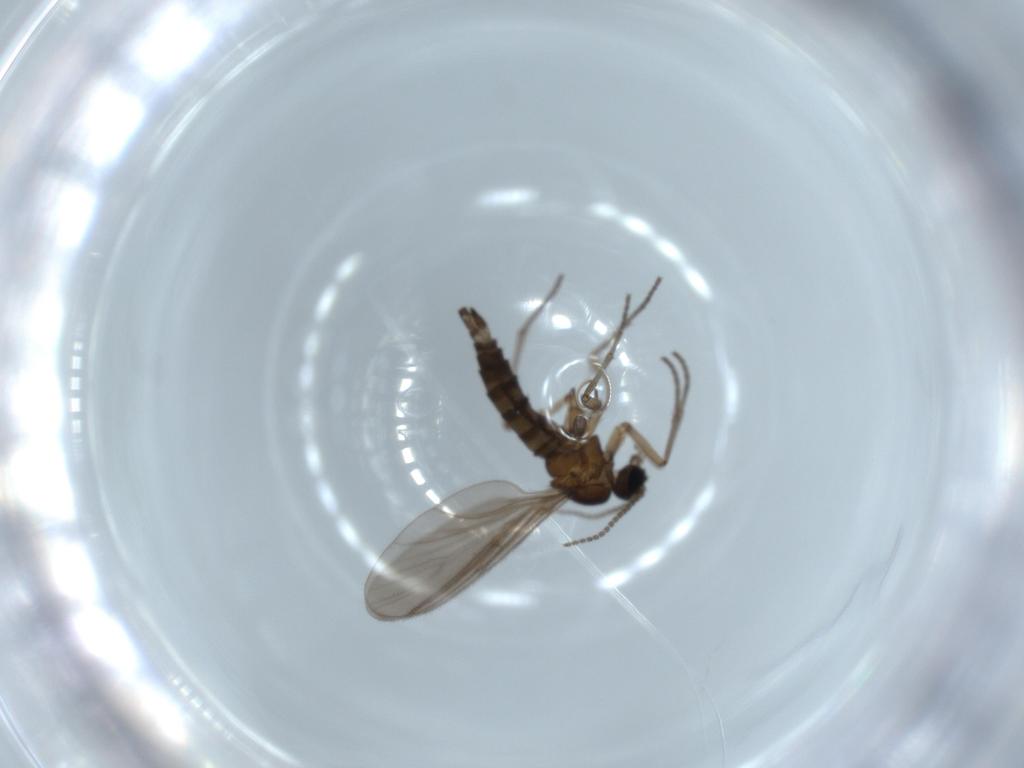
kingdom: Animalia
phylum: Arthropoda
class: Insecta
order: Diptera
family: Sciaridae
